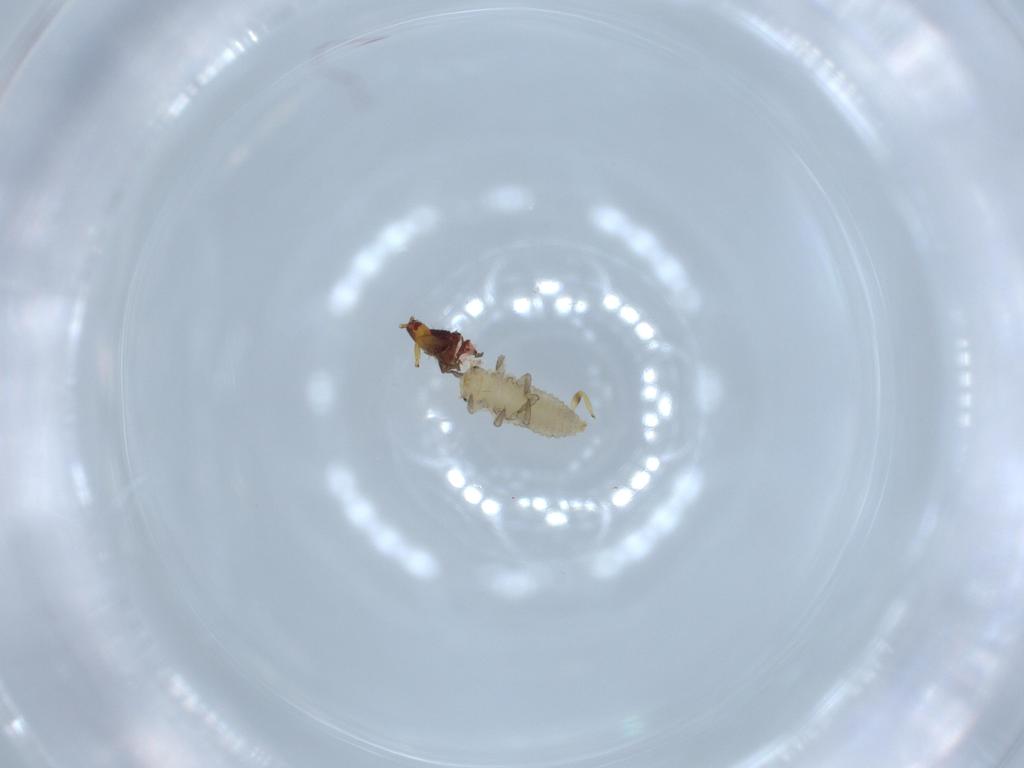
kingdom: Animalia
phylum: Arthropoda
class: Insecta
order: Coleoptera
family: Coccinellidae
